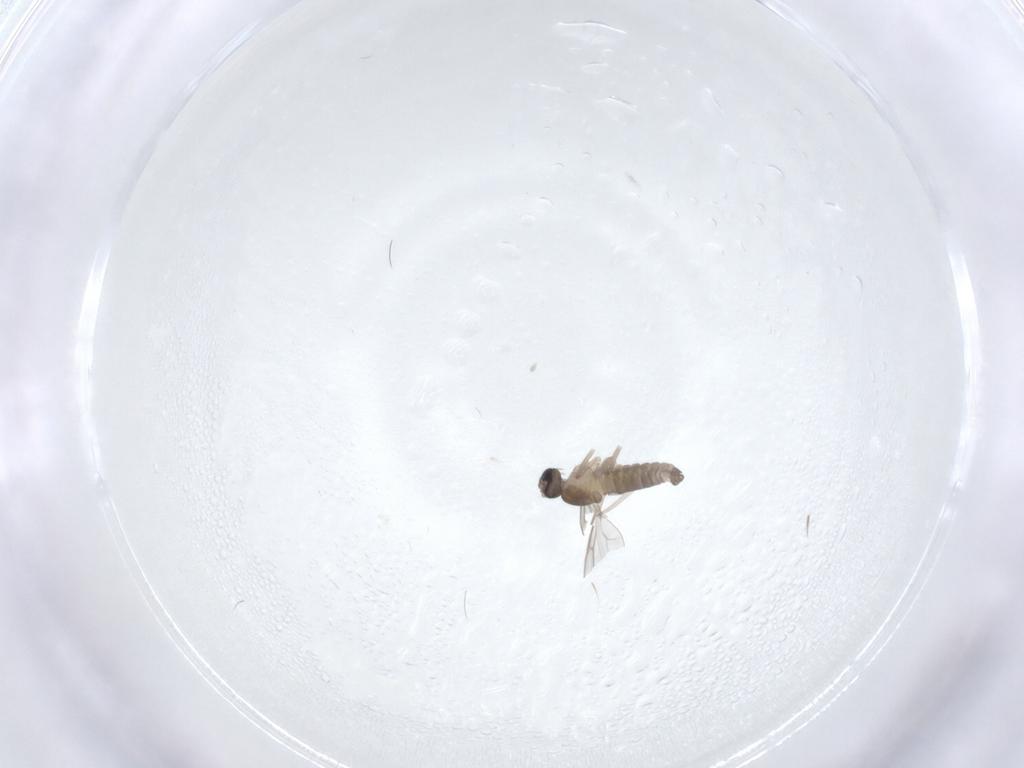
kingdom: Animalia
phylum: Arthropoda
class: Insecta
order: Diptera
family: Cecidomyiidae
